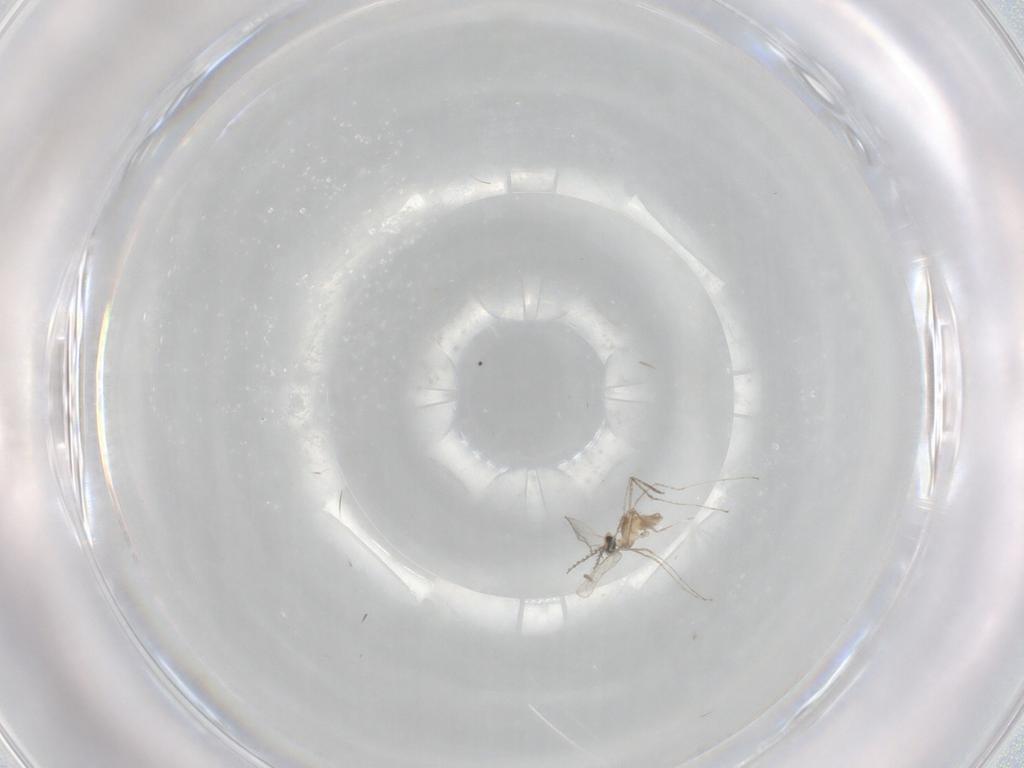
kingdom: Animalia
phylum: Arthropoda
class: Insecta
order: Diptera
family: Cecidomyiidae
